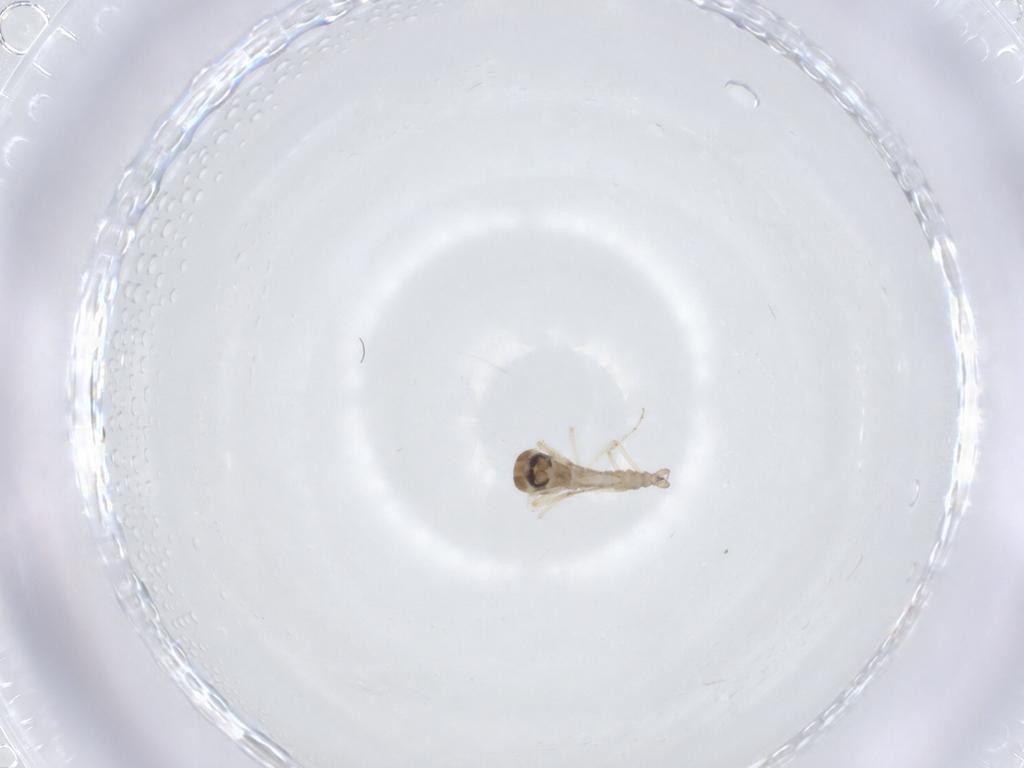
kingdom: Animalia
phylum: Arthropoda
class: Insecta
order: Diptera
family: Ceratopogonidae
